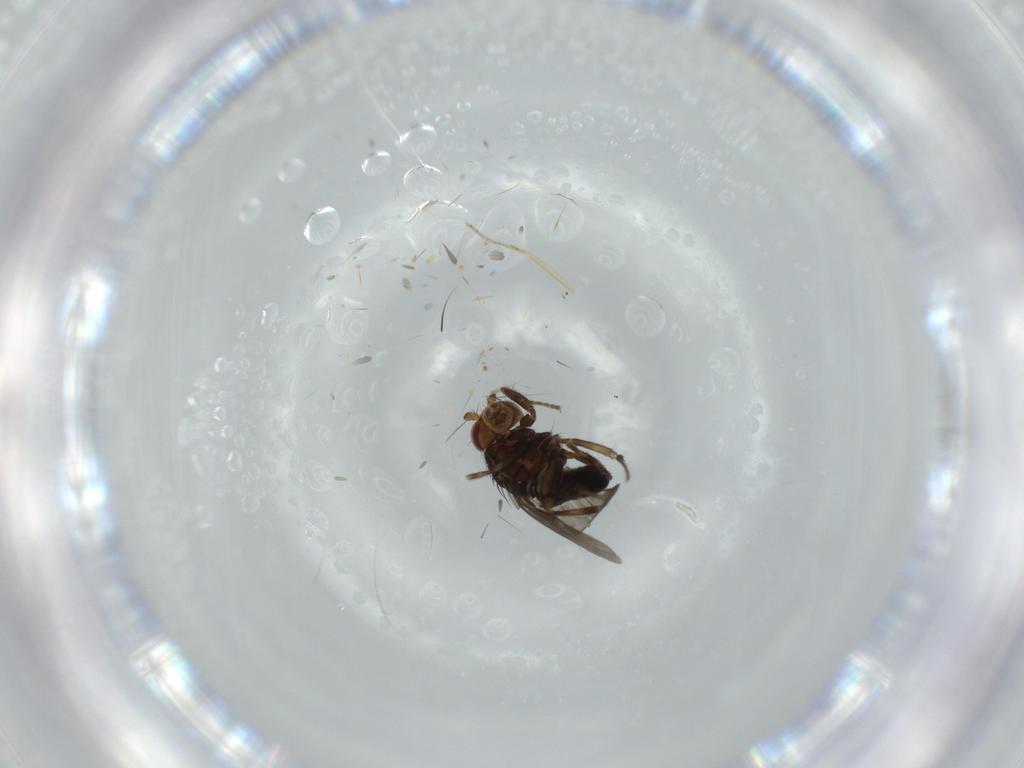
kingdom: Animalia
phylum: Arthropoda
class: Insecta
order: Diptera
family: Sphaeroceridae
